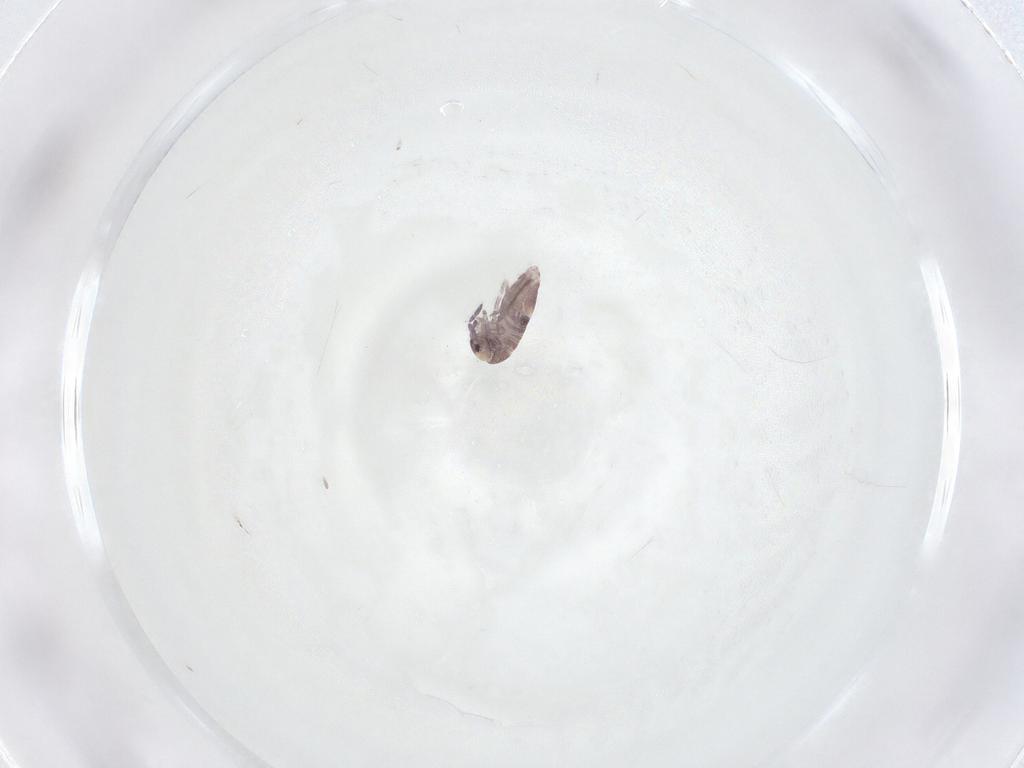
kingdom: Animalia
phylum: Arthropoda
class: Collembola
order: Entomobryomorpha
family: Entomobryidae
